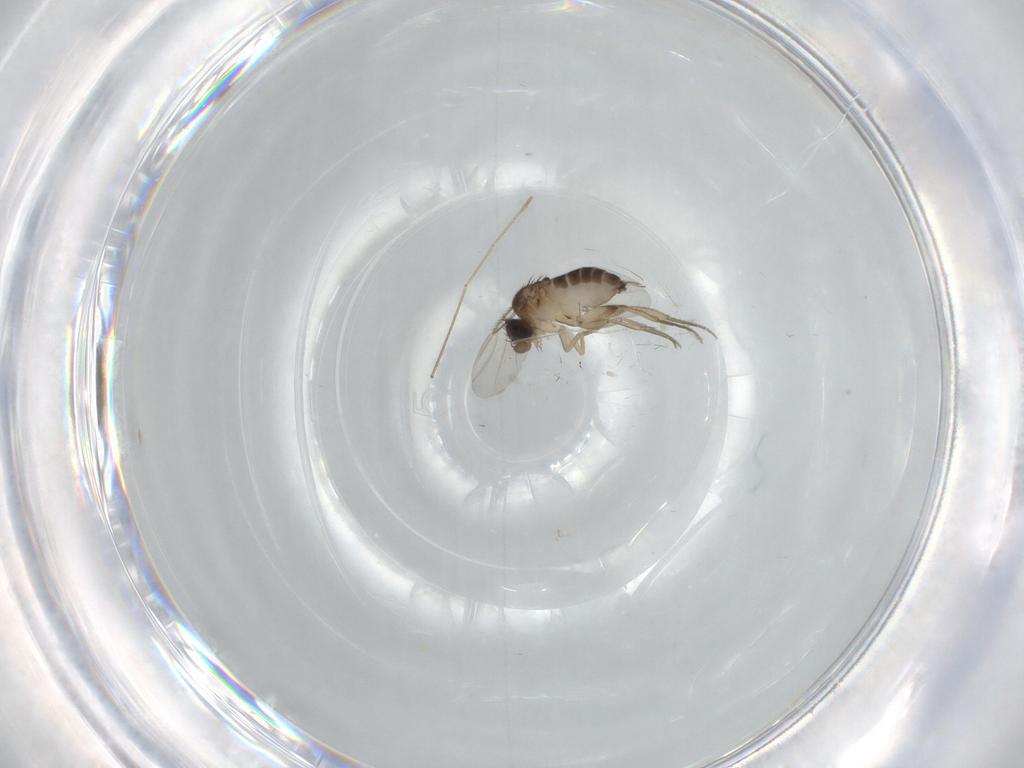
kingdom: Animalia
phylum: Arthropoda
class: Insecta
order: Diptera
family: Phoridae
